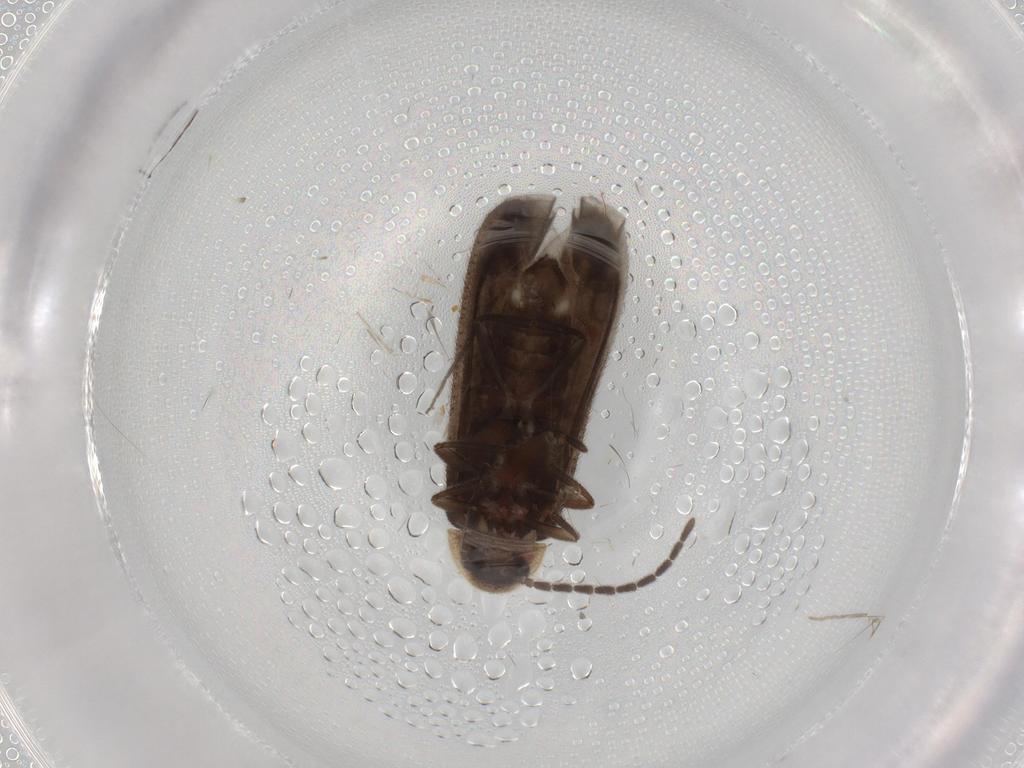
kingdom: Animalia
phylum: Arthropoda
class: Insecta
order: Coleoptera
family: Lampyridae
